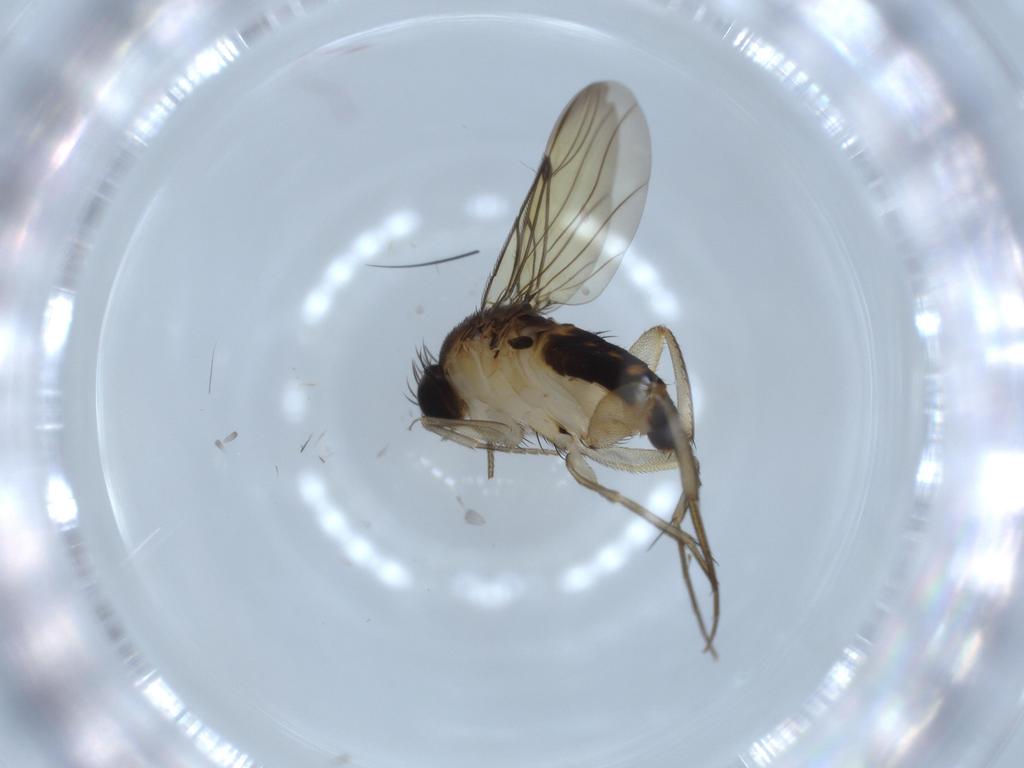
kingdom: Animalia
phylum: Arthropoda
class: Insecta
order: Diptera
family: Phoridae
